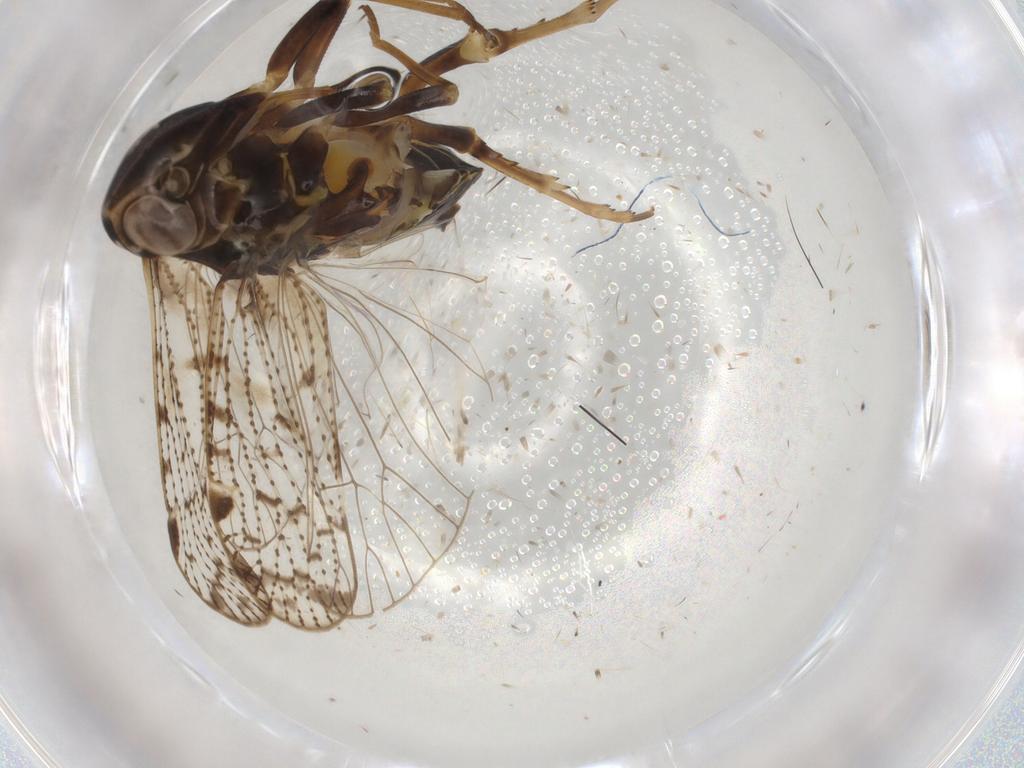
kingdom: Animalia
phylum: Arthropoda
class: Insecta
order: Hemiptera
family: Cixiidae
